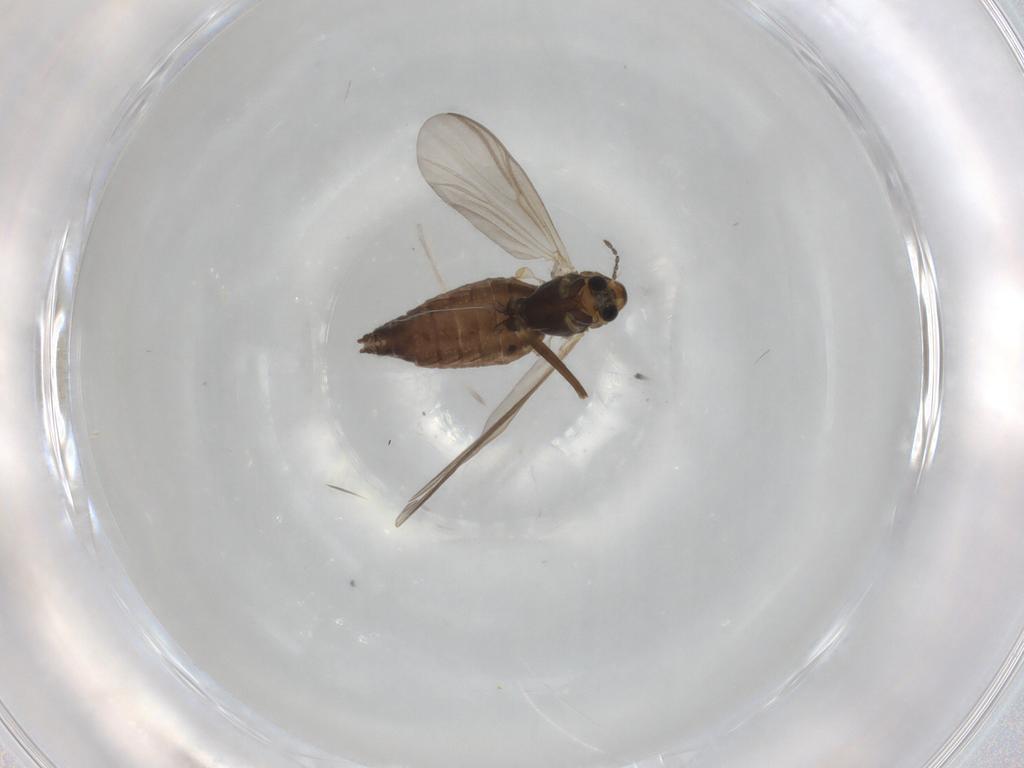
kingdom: Animalia
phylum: Arthropoda
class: Insecta
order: Diptera
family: Chironomidae
